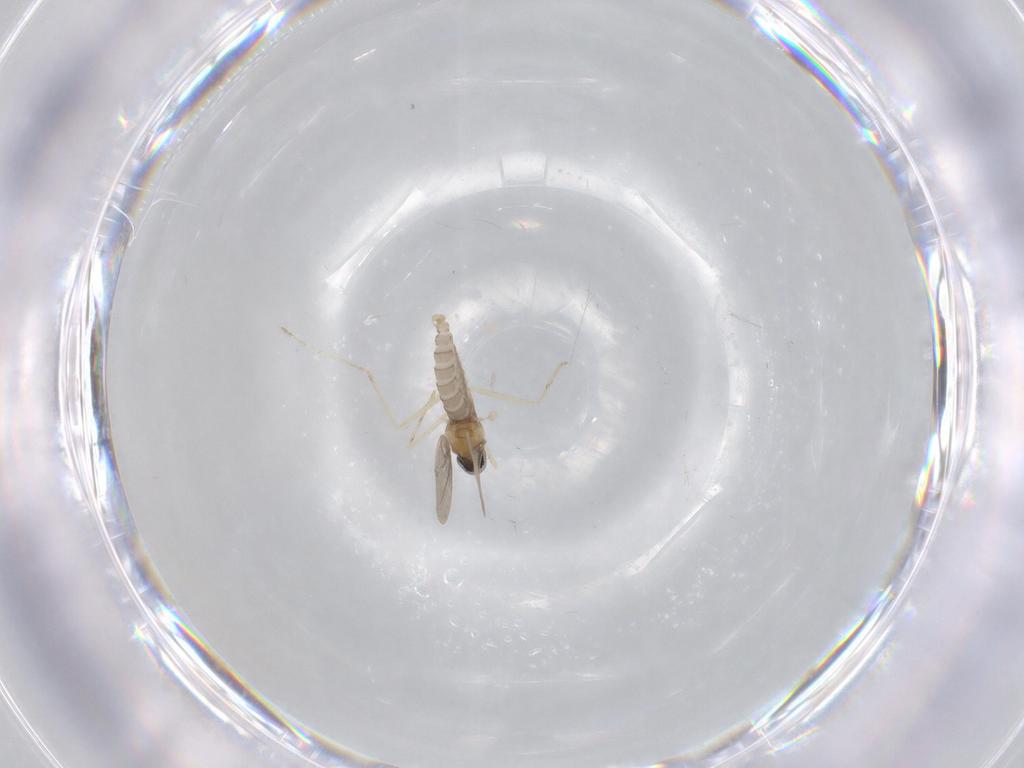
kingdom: Animalia
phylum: Arthropoda
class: Insecta
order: Diptera
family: Cecidomyiidae
